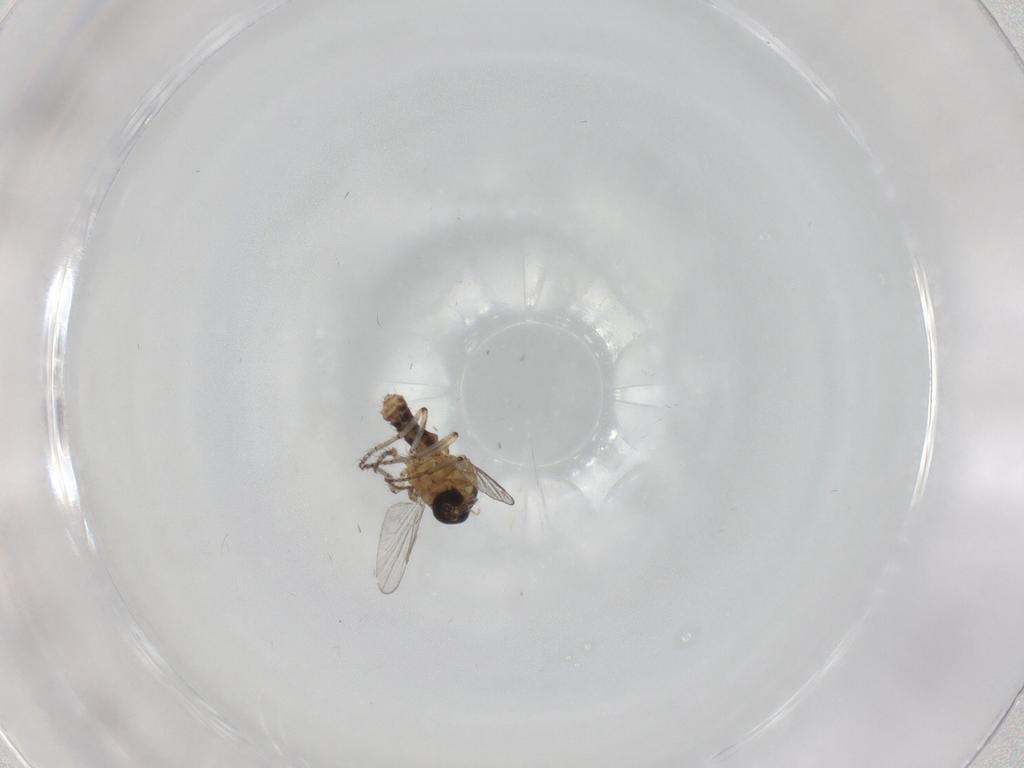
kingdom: Animalia
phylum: Arthropoda
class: Insecta
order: Diptera
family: Ceratopogonidae
